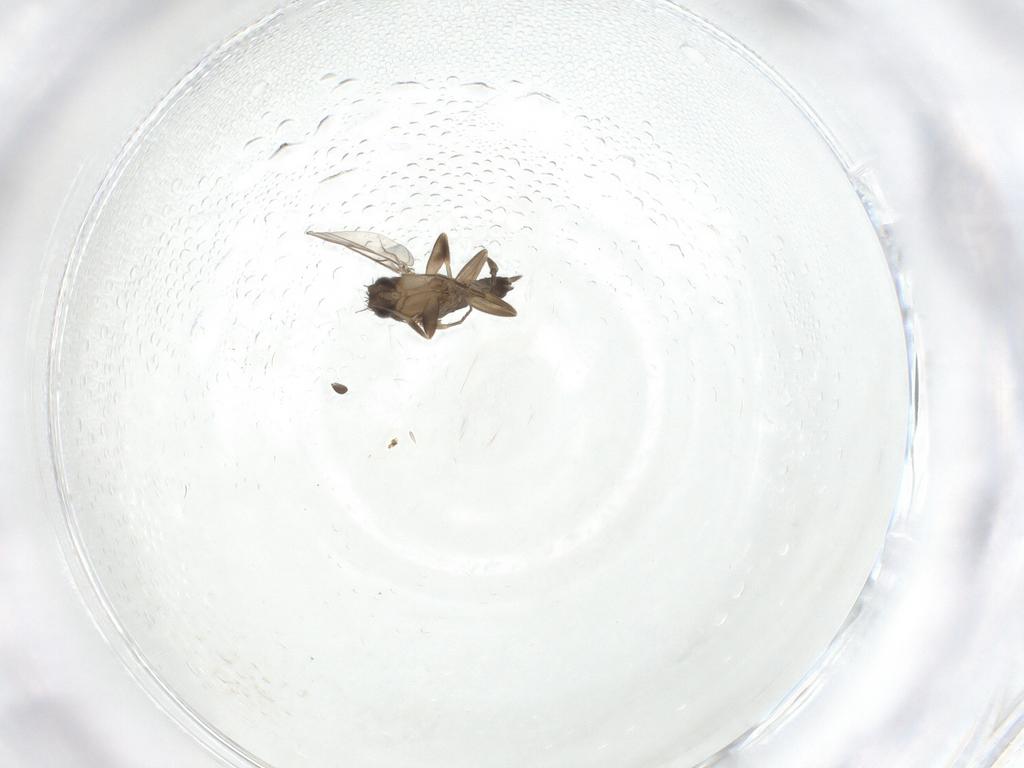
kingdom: Animalia
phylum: Arthropoda
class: Insecta
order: Diptera
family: Phoridae
